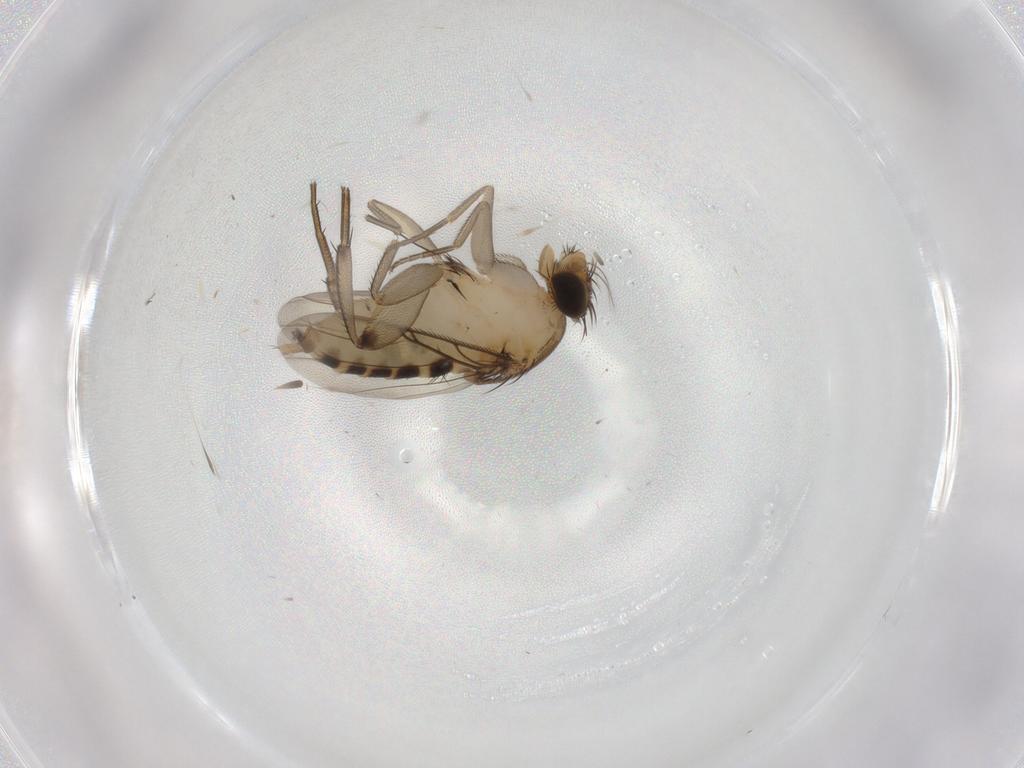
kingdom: Animalia
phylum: Arthropoda
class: Insecta
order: Diptera
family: Phoridae
